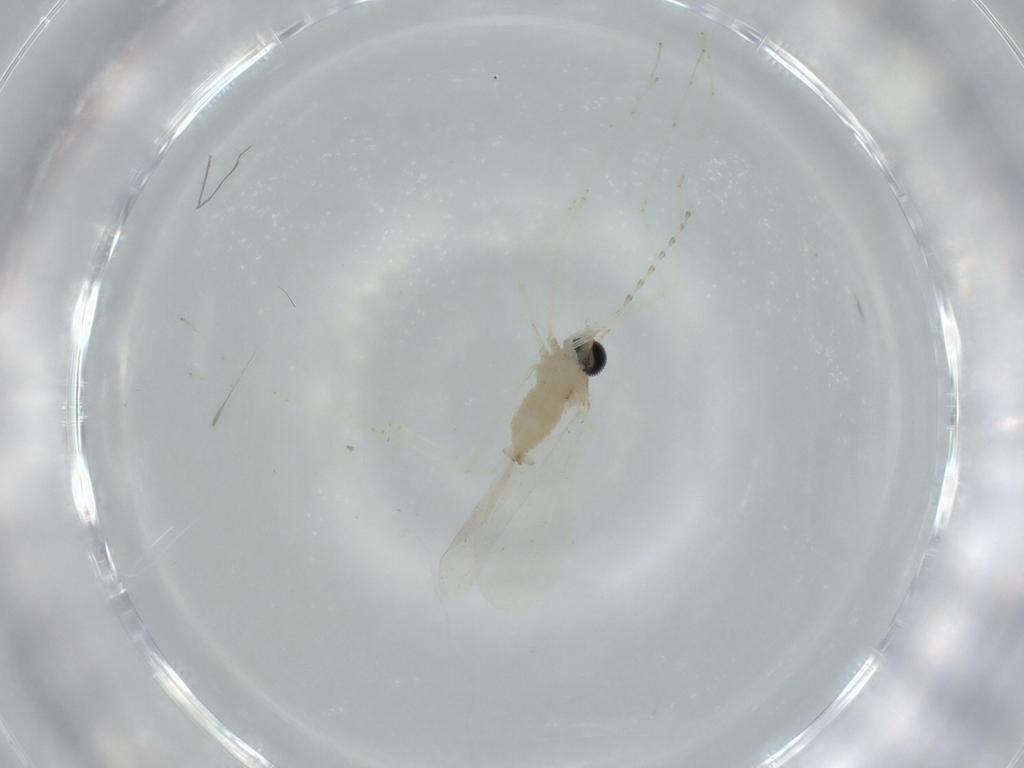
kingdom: Animalia
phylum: Arthropoda
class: Insecta
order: Diptera
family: Cecidomyiidae
